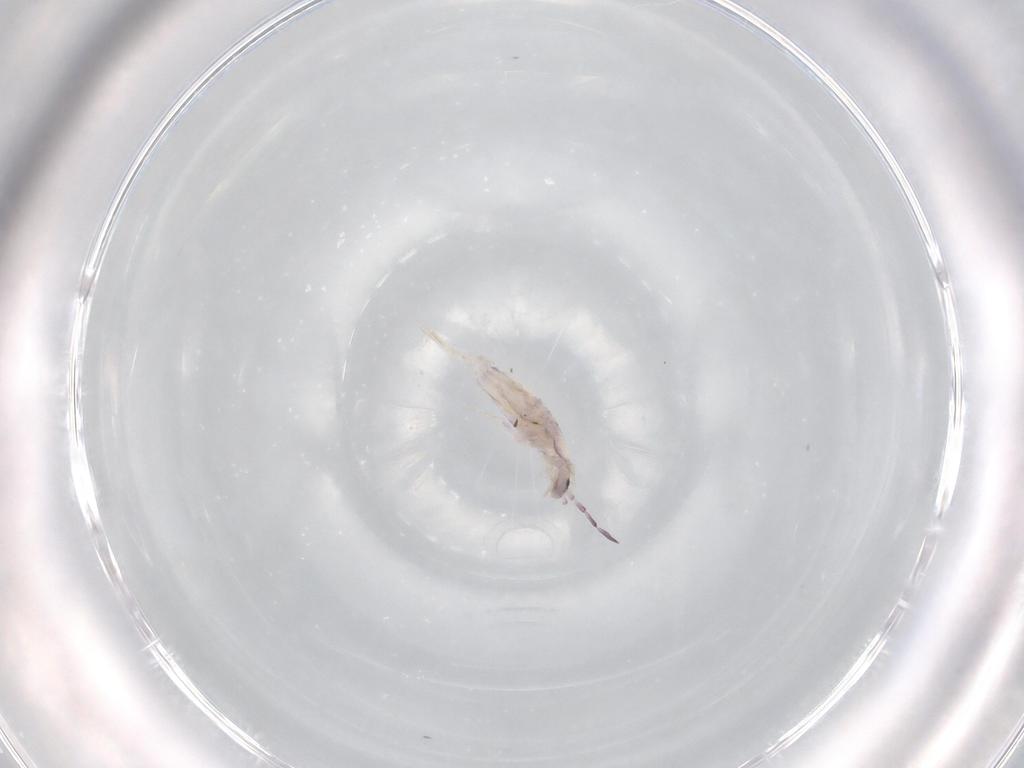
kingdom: Animalia
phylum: Arthropoda
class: Collembola
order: Poduromorpha
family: Hypogastruridae
